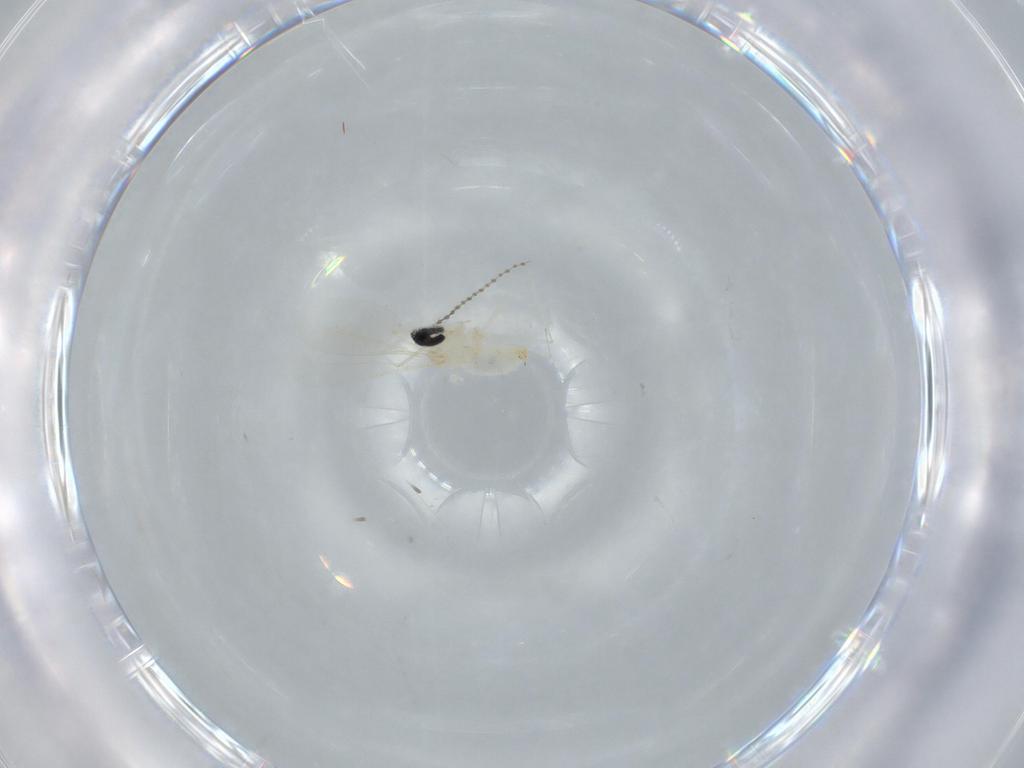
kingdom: Animalia
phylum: Arthropoda
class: Insecta
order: Diptera
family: Cecidomyiidae
